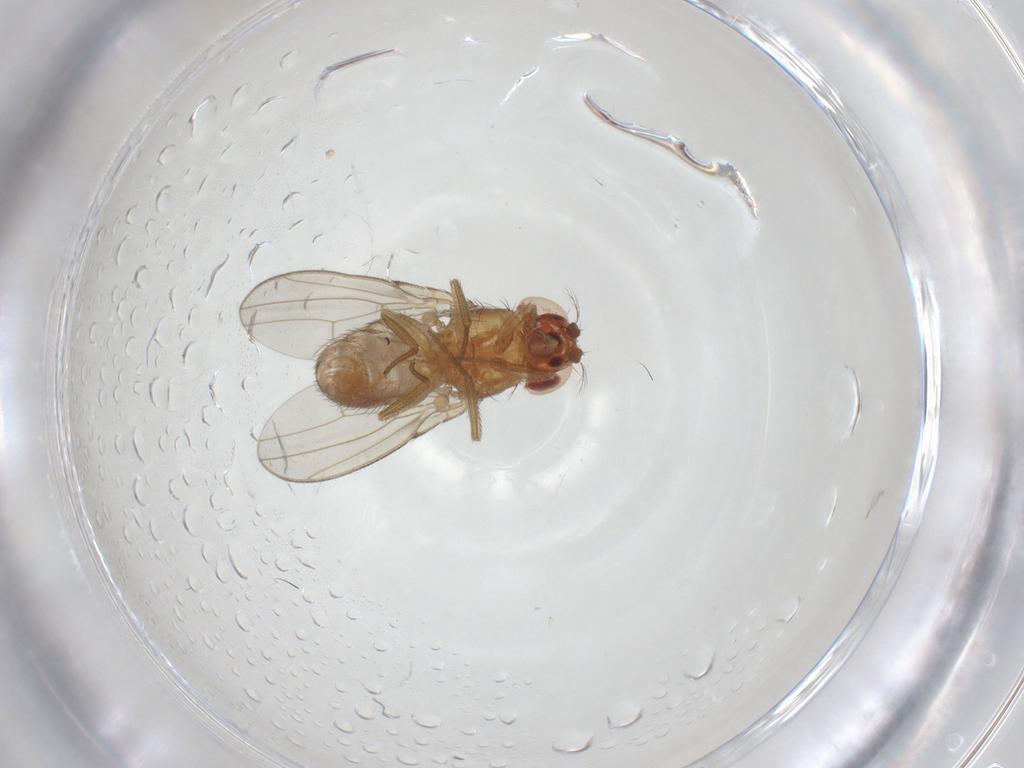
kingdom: Animalia
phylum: Arthropoda
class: Insecta
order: Diptera
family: Drosophilidae
